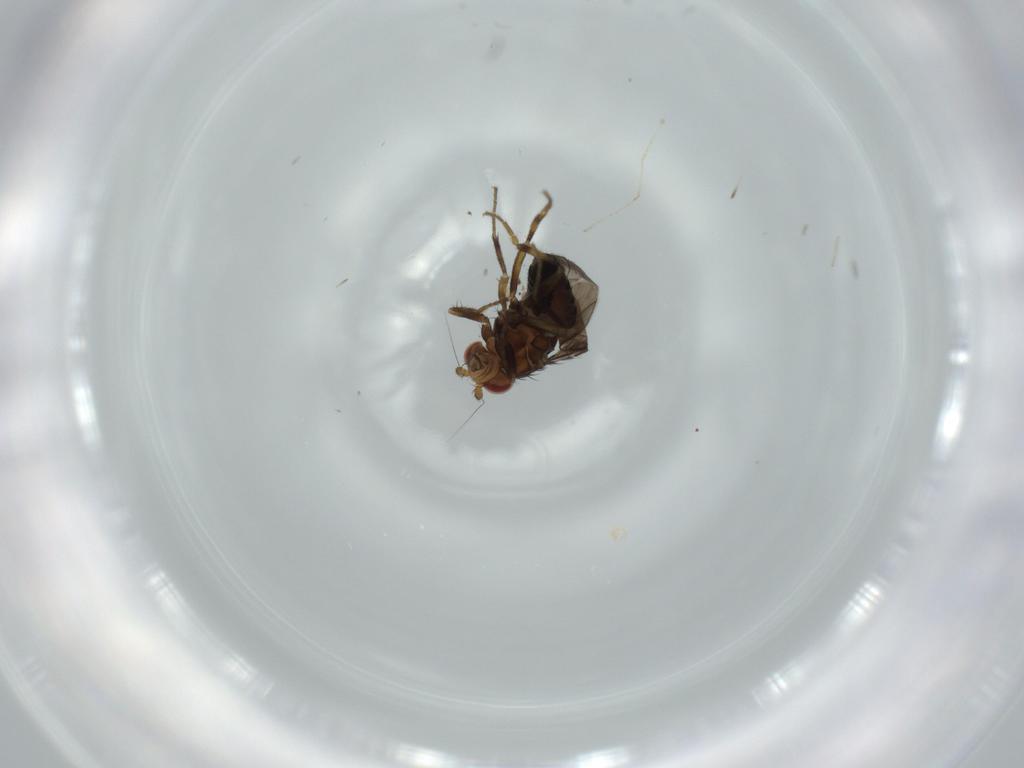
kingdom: Animalia
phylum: Arthropoda
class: Insecta
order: Diptera
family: Sphaeroceridae
